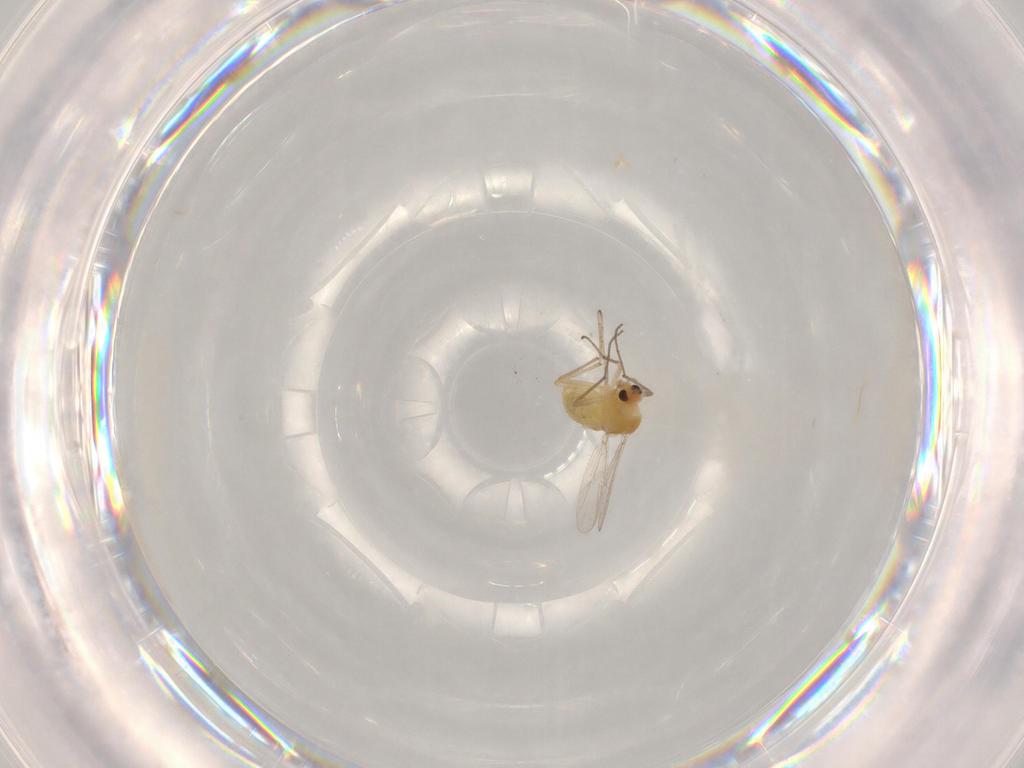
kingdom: Animalia
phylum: Arthropoda
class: Insecta
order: Diptera
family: Chironomidae
